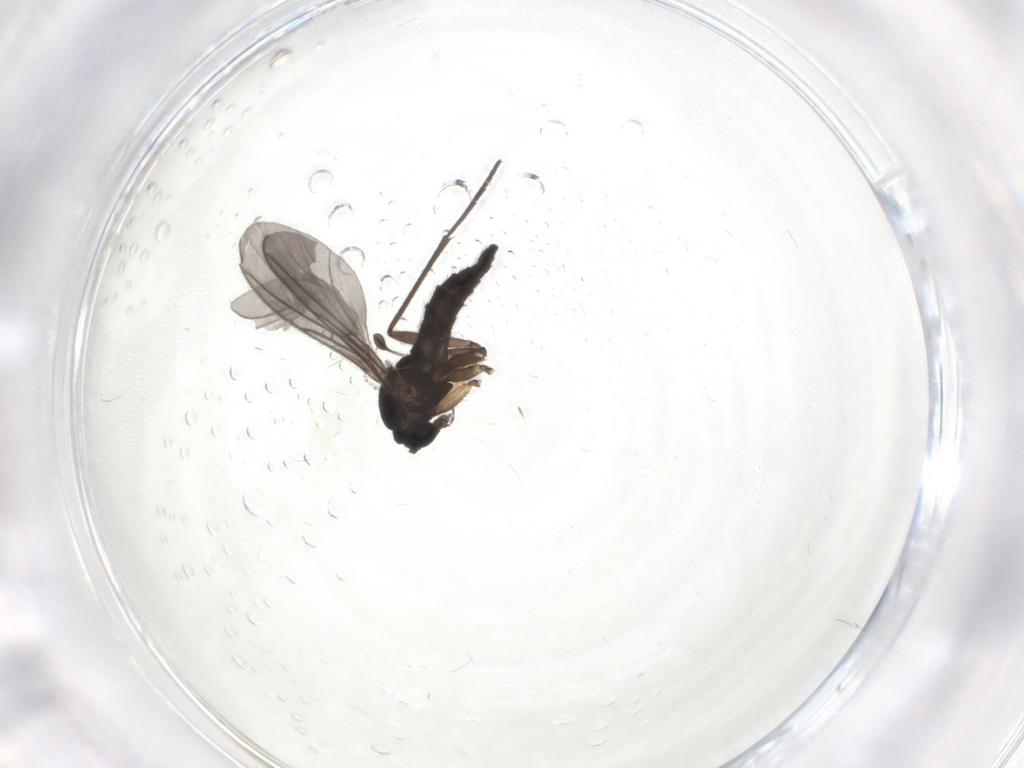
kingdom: Animalia
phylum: Arthropoda
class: Insecta
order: Diptera
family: Sciaridae
